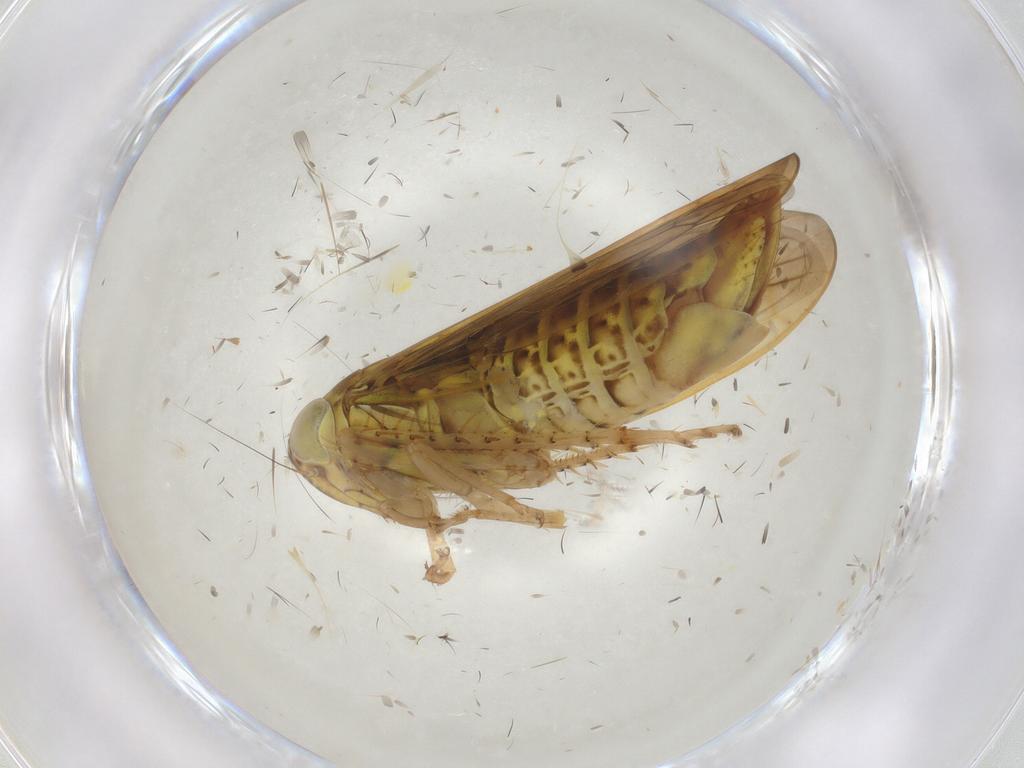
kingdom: Animalia
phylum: Arthropoda
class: Insecta
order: Hemiptera
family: Cicadellidae
